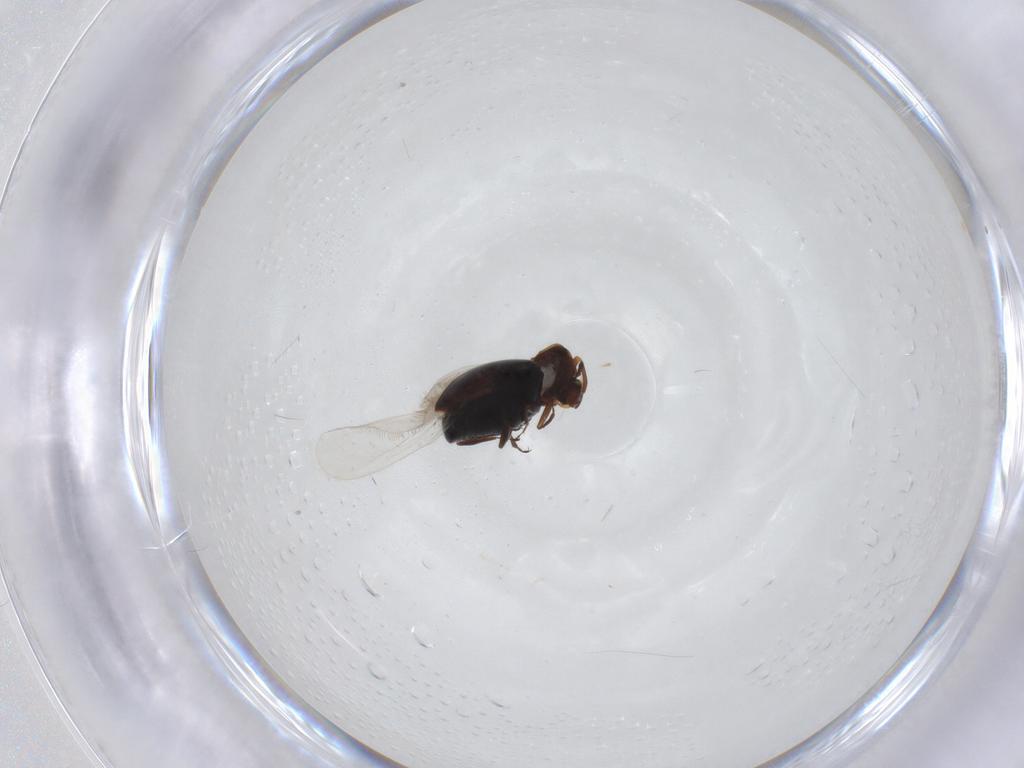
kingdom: Animalia
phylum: Arthropoda
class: Insecta
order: Coleoptera
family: Corylophidae
